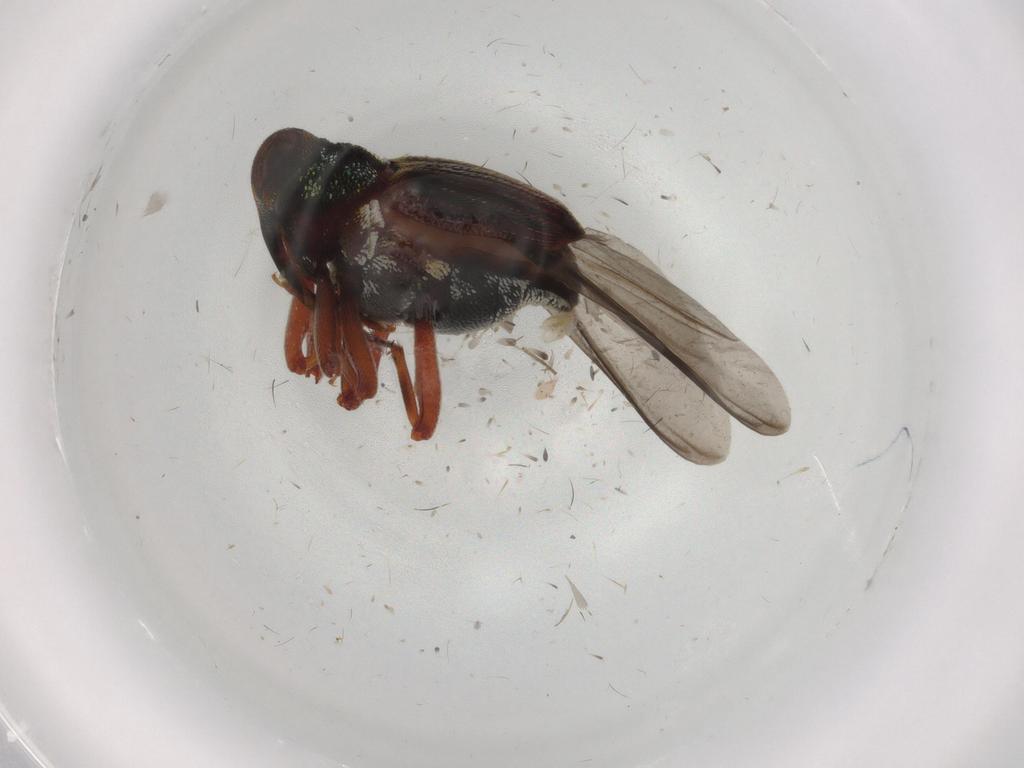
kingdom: Animalia
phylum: Arthropoda
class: Insecta
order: Coleoptera
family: Curculionidae
